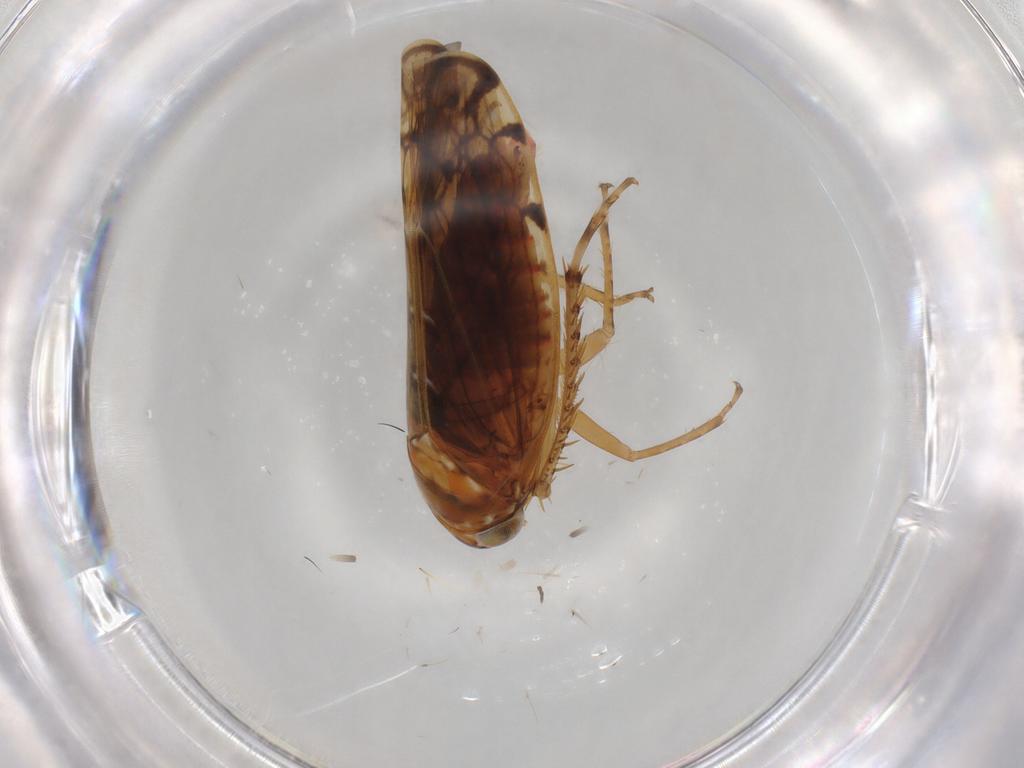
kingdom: Animalia
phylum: Arthropoda
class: Insecta
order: Hemiptera
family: Cicadellidae
